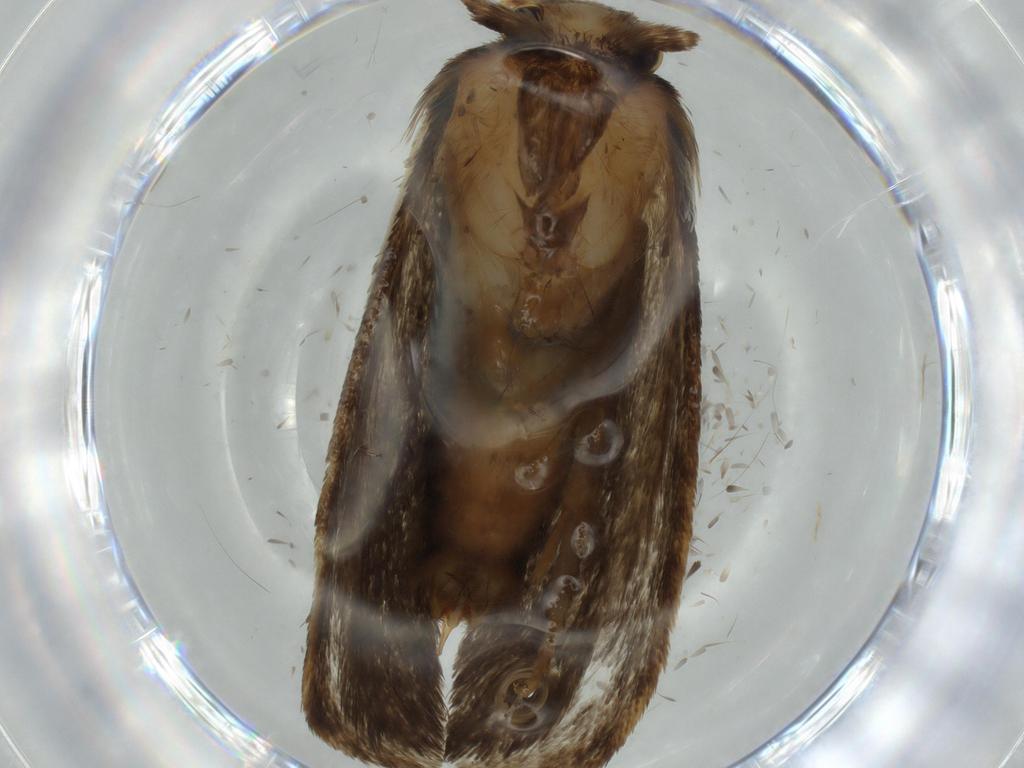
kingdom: Animalia
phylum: Arthropoda
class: Insecta
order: Lepidoptera
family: Tineidae
